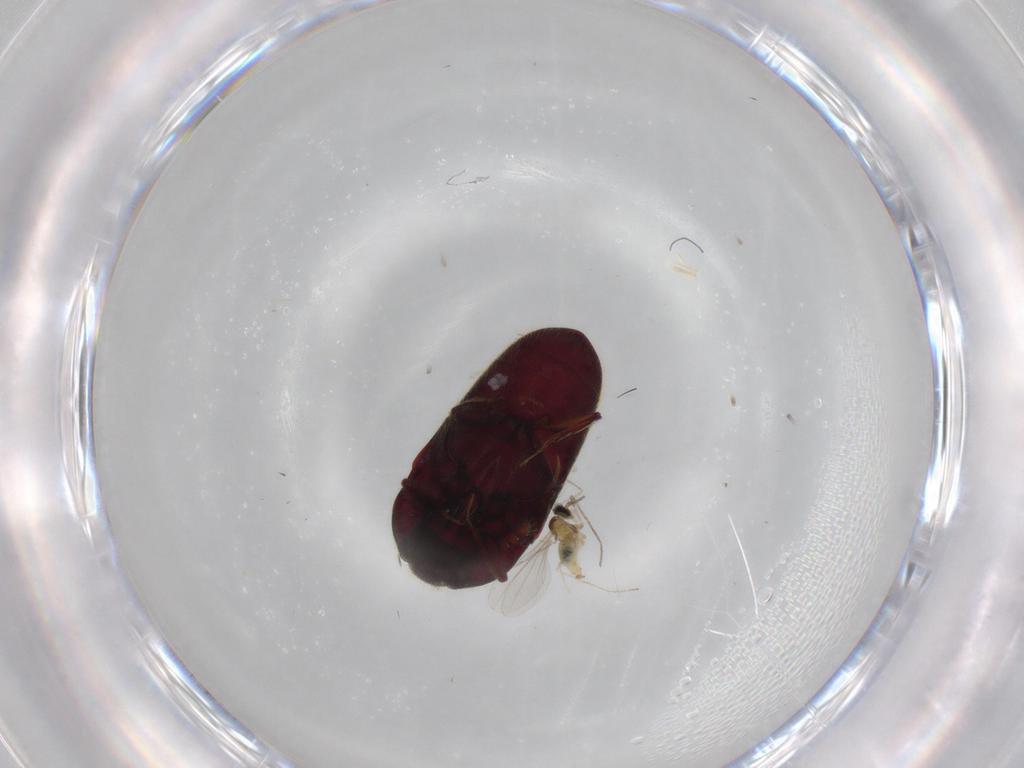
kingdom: Animalia
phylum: Arthropoda
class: Insecta
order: Coleoptera
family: Throscidae
